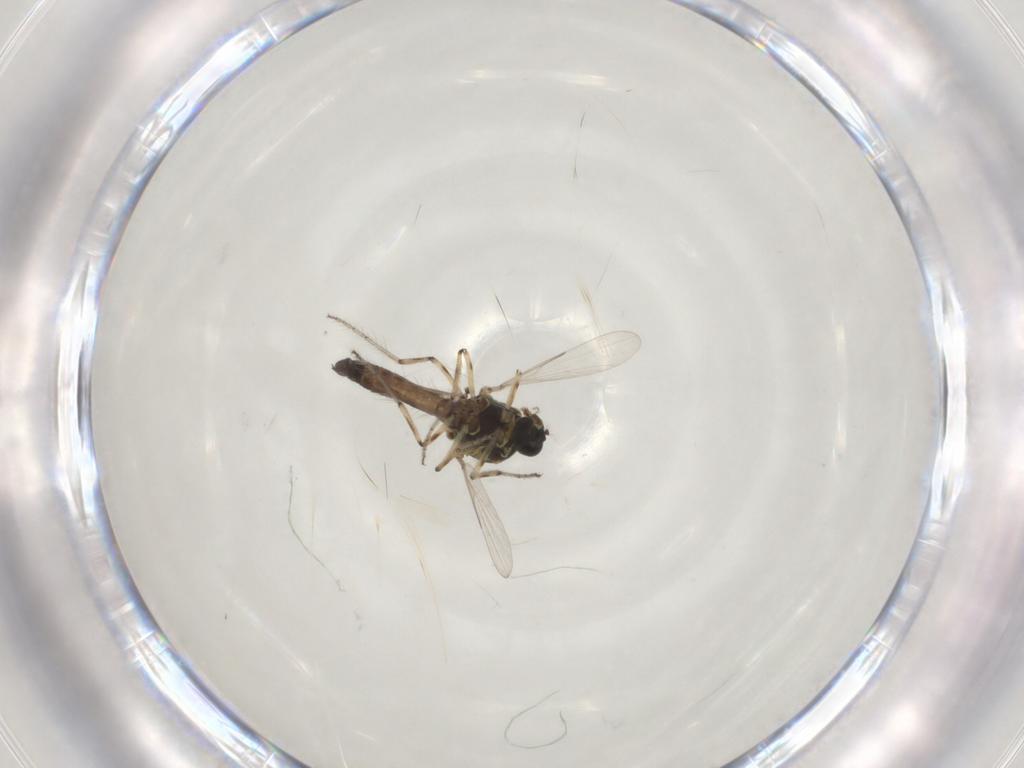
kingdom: Animalia
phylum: Arthropoda
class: Insecta
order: Diptera
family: Ceratopogonidae
